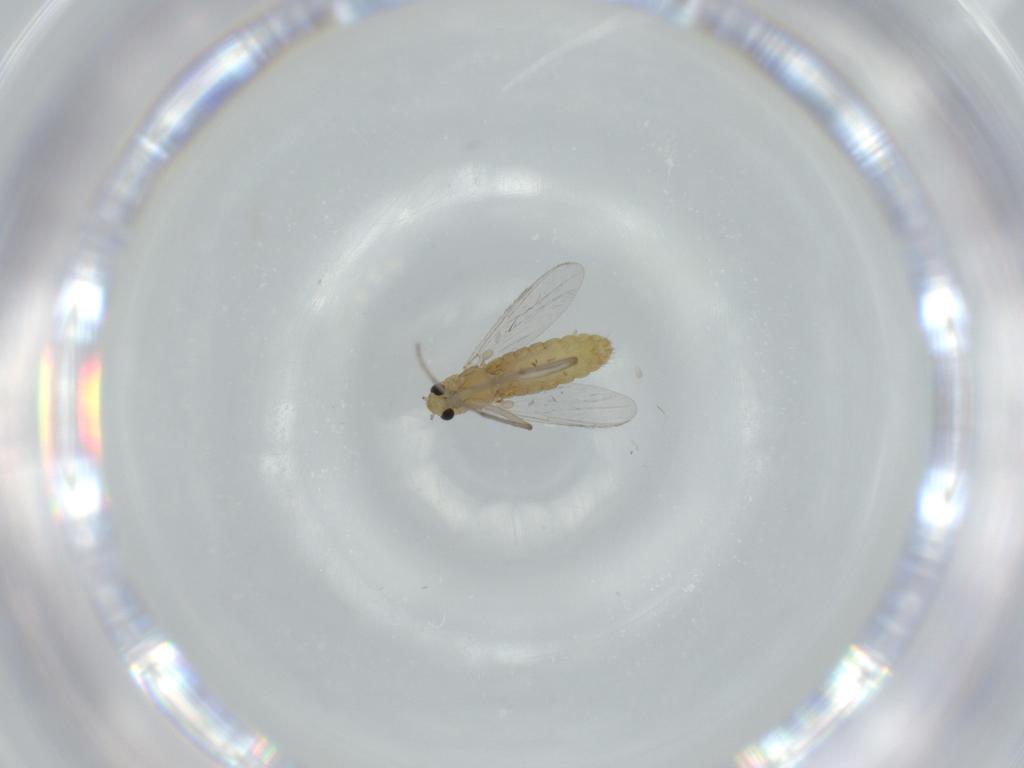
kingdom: Animalia
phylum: Arthropoda
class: Insecta
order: Diptera
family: Chironomidae
